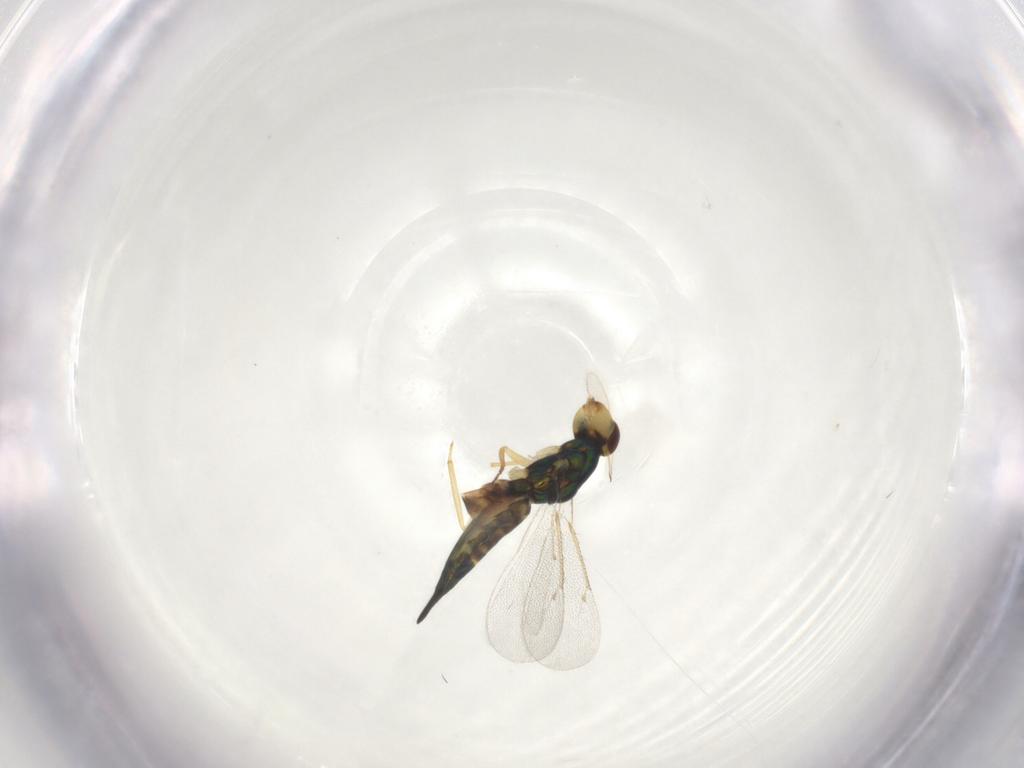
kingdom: Animalia
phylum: Arthropoda
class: Insecta
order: Hymenoptera
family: Eulophidae
